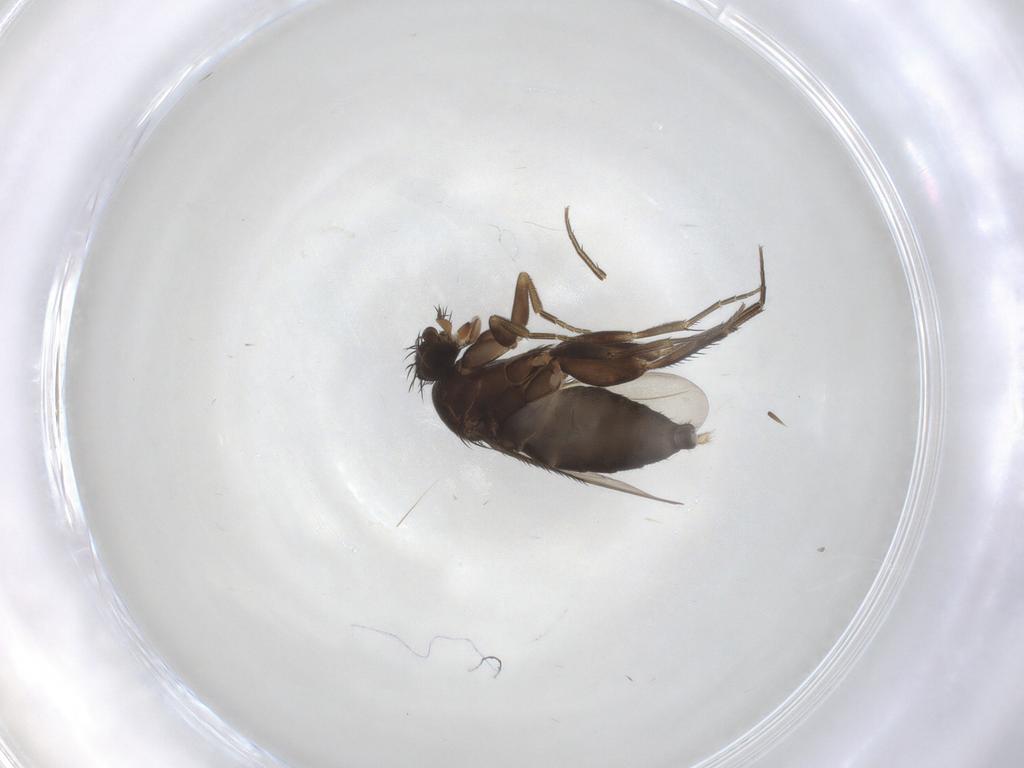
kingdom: Animalia
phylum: Arthropoda
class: Insecta
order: Diptera
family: Phoridae
